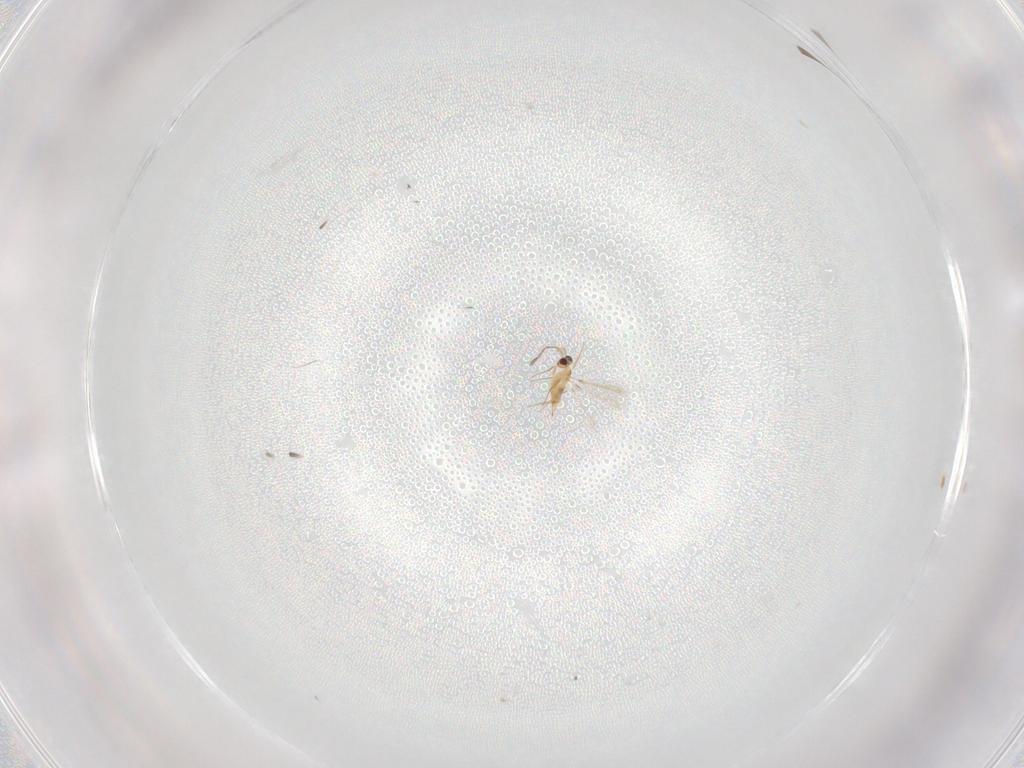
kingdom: Animalia
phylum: Arthropoda
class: Insecta
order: Hymenoptera
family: Mymaridae
